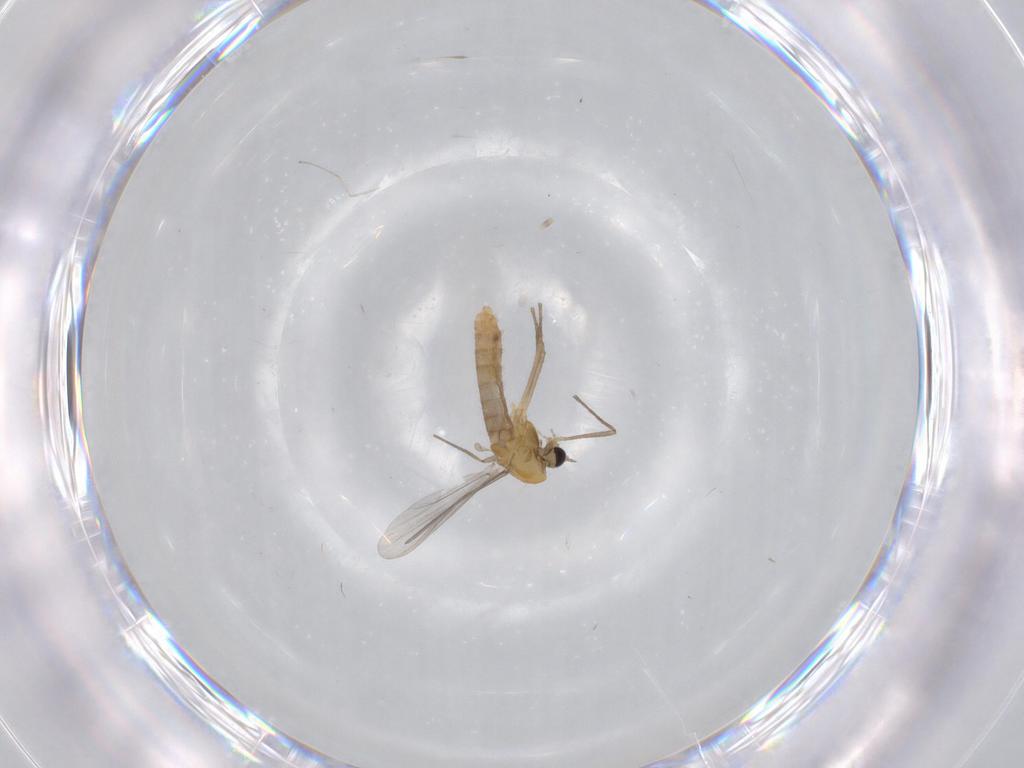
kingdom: Animalia
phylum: Arthropoda
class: Insecta
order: Diptera
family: Chironomidae
